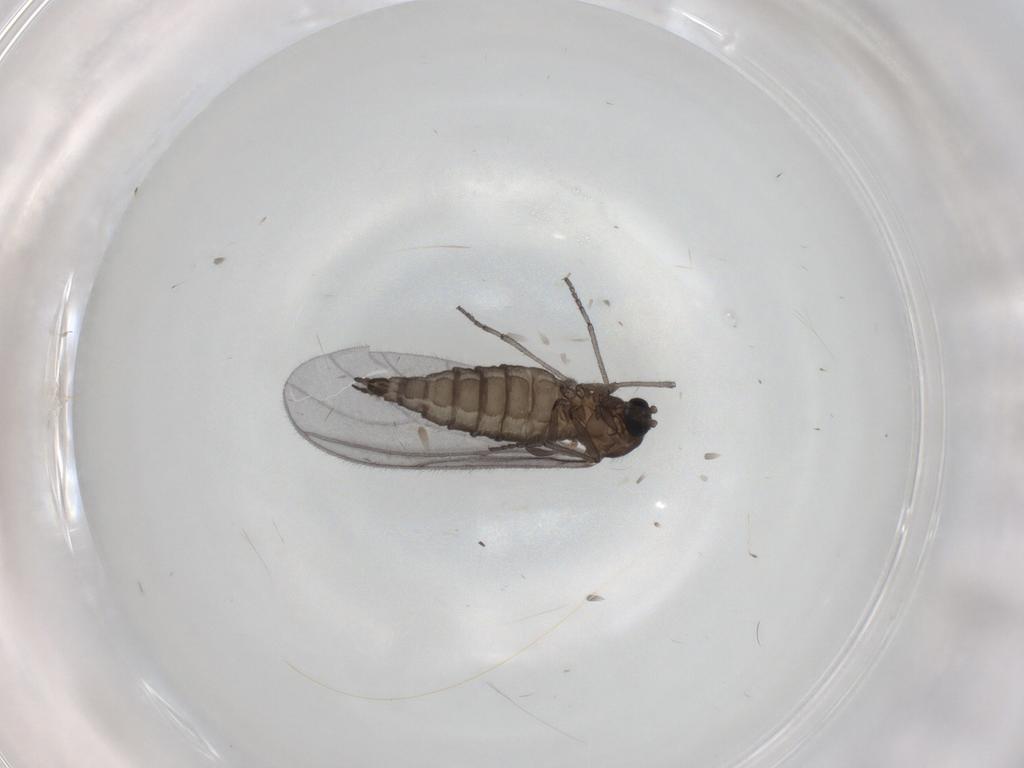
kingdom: Animalia
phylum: Arthropoda
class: Insecta
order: Diptera
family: Sciaridae
